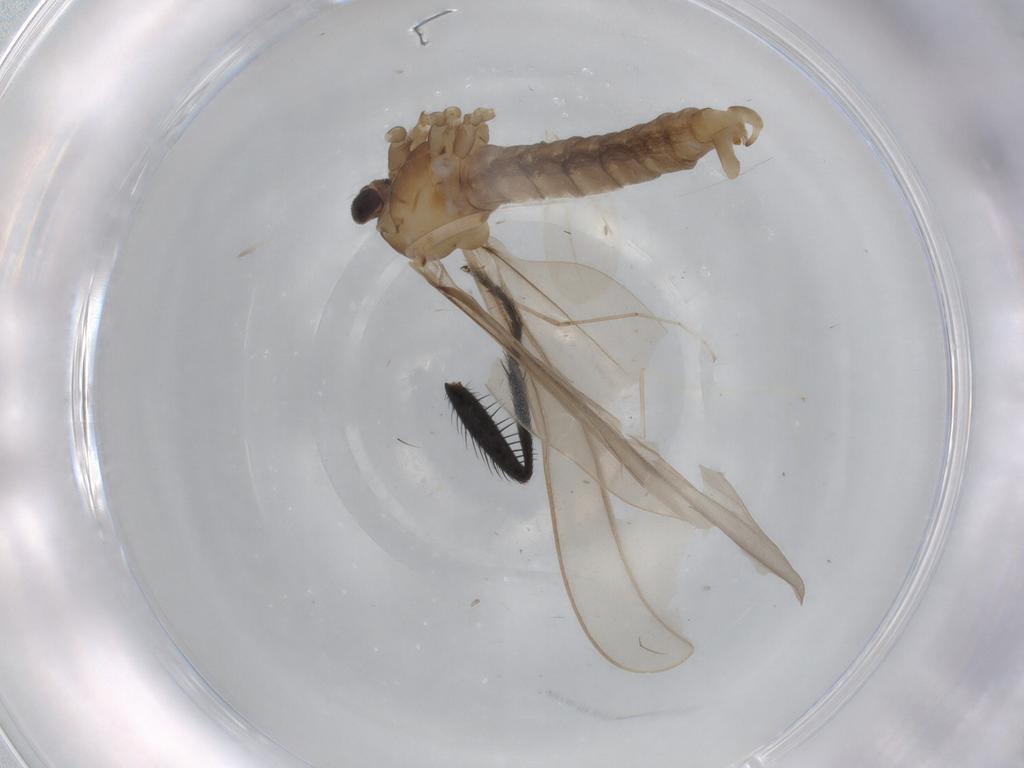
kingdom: Animalia
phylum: Arthropoda
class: Insecta
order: Diptera
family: Cecidomyiidae
